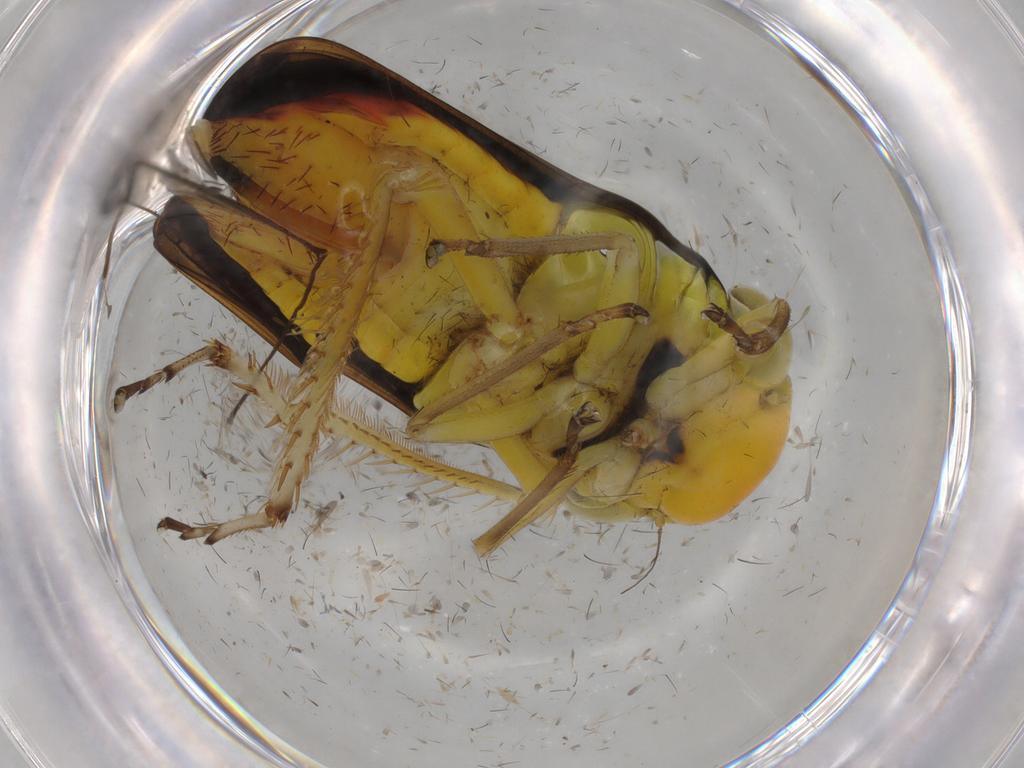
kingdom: Animalia
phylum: Arthropoda
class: Insecta
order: Hemiptera
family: Cicadellidae
